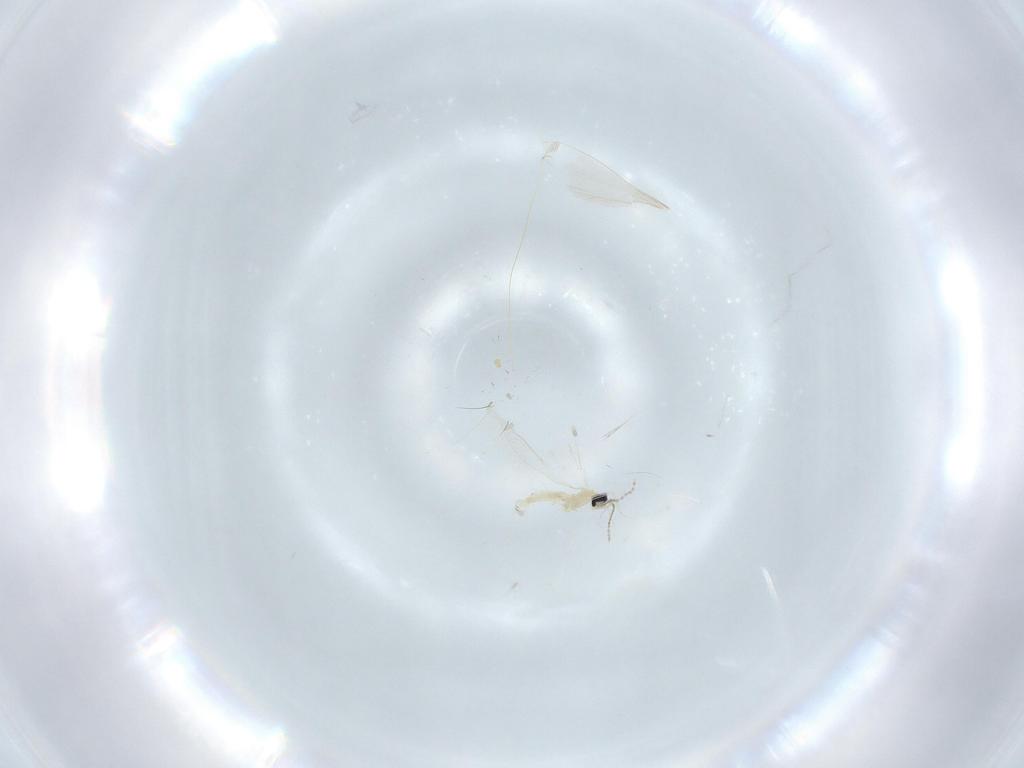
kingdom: Animalia
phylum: Arthropoda
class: Insecta
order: Diptera
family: Cecidomyiidae
